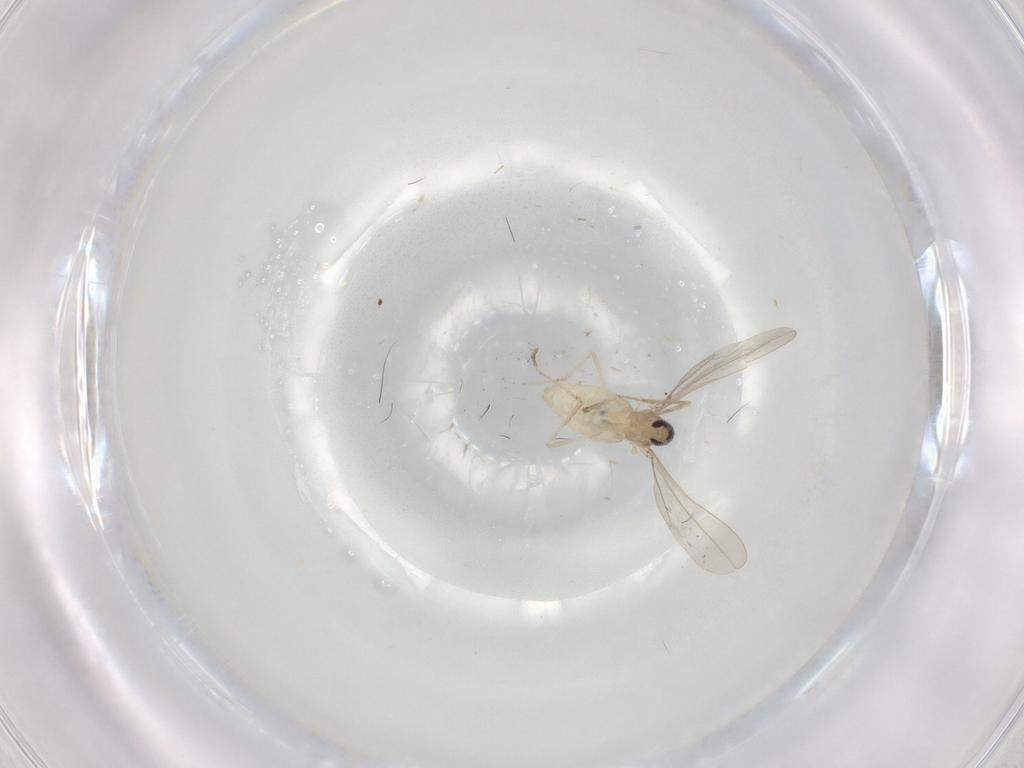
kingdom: Animalia
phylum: Arthropoda
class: Insecta
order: Diptera
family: Cecidomyiidae
